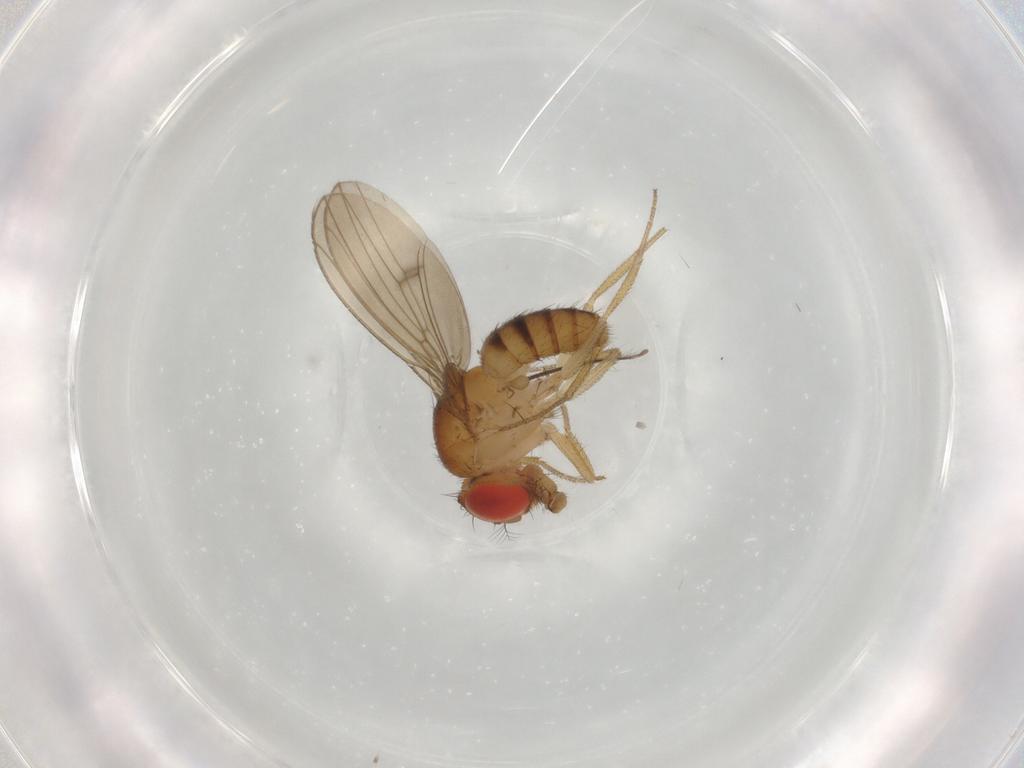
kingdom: Animalia
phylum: Arthropoda
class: Insecta
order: Diptera
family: Drosophilidae
